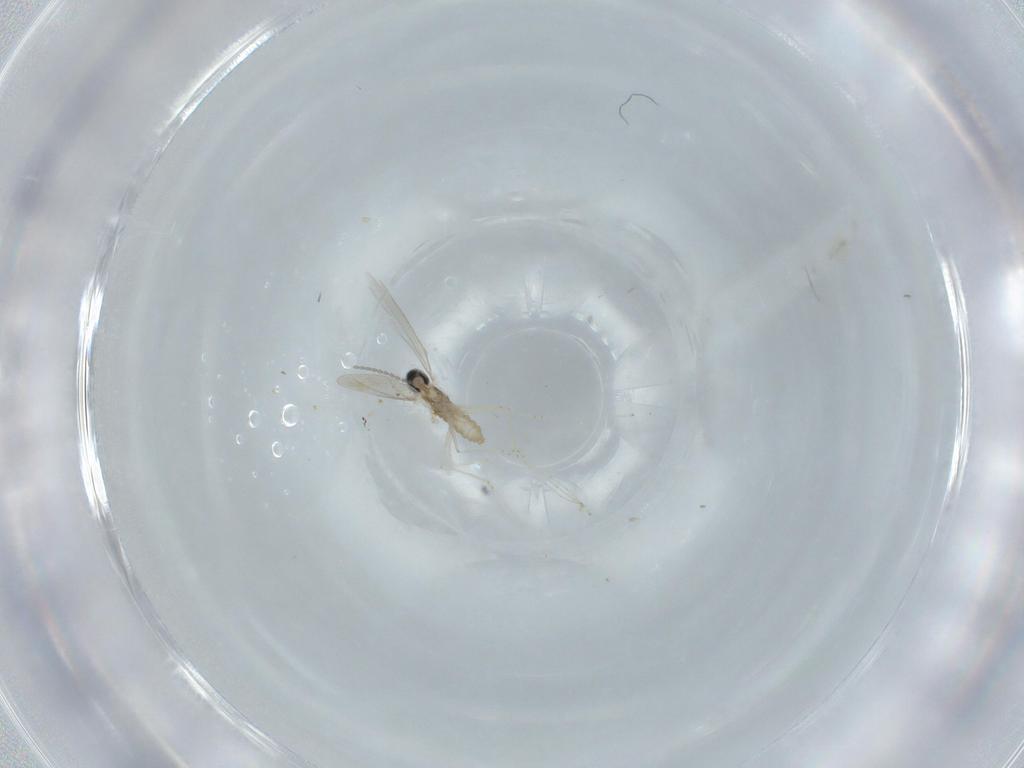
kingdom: Animalia
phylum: Arthropoda
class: Insecta
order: Diptera
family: Cecidomyiidae
